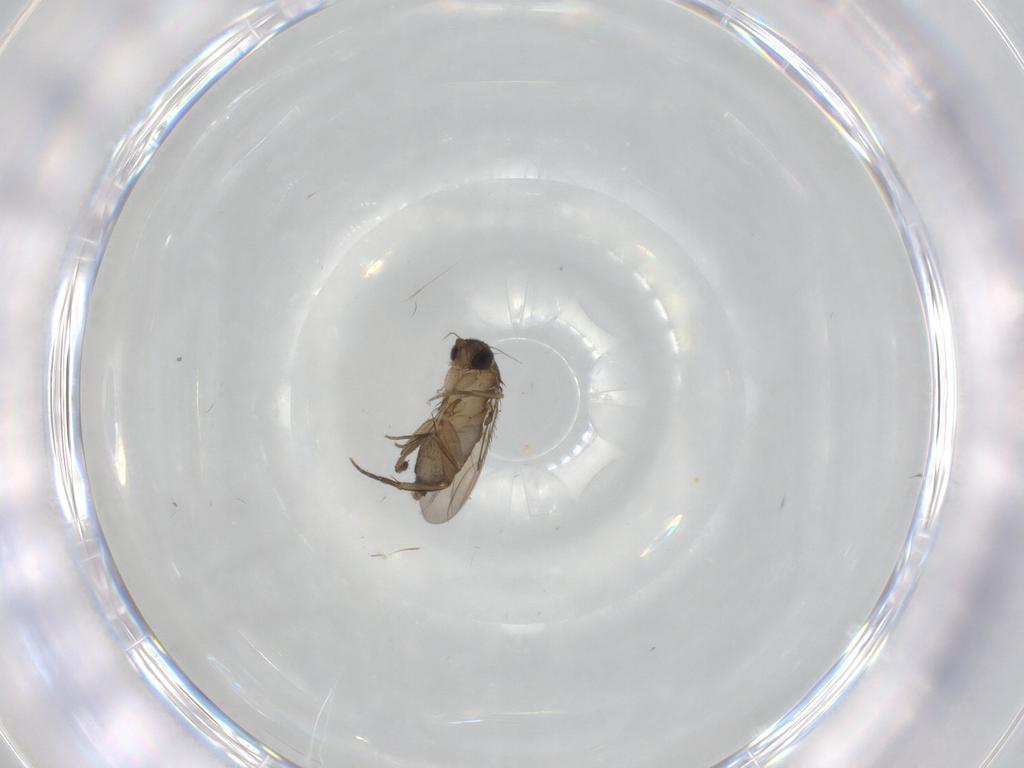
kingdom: Animalia
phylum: Arthropoda
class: Insecta
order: Diptera
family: Phoridae
